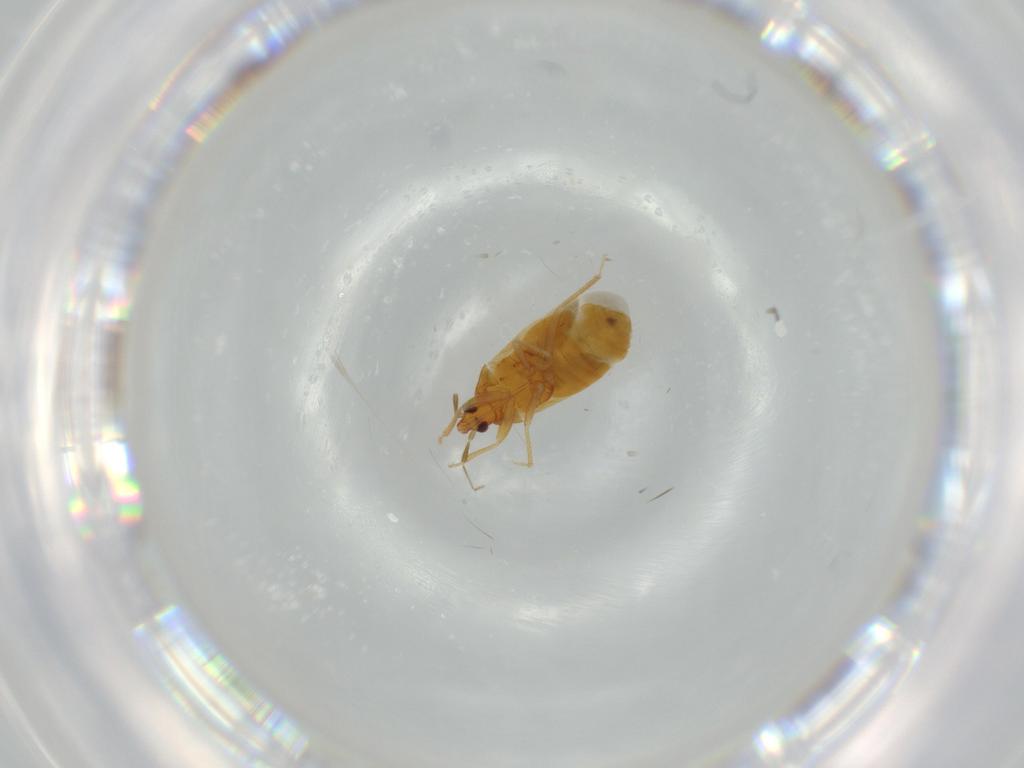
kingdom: Animalia
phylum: Arthropoda
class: Insecta
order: Hemiptera
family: Lasiochilidae
